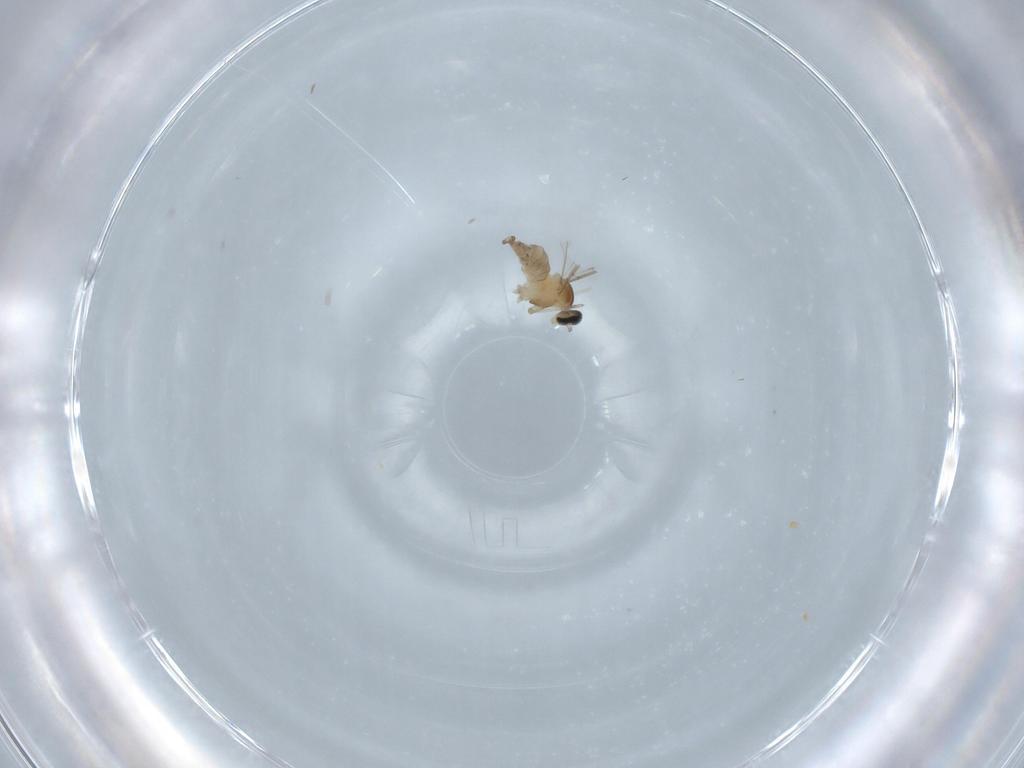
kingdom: Animalia
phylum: Arthropoda
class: Insecta
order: Diptera
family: Cecidomyiidae
